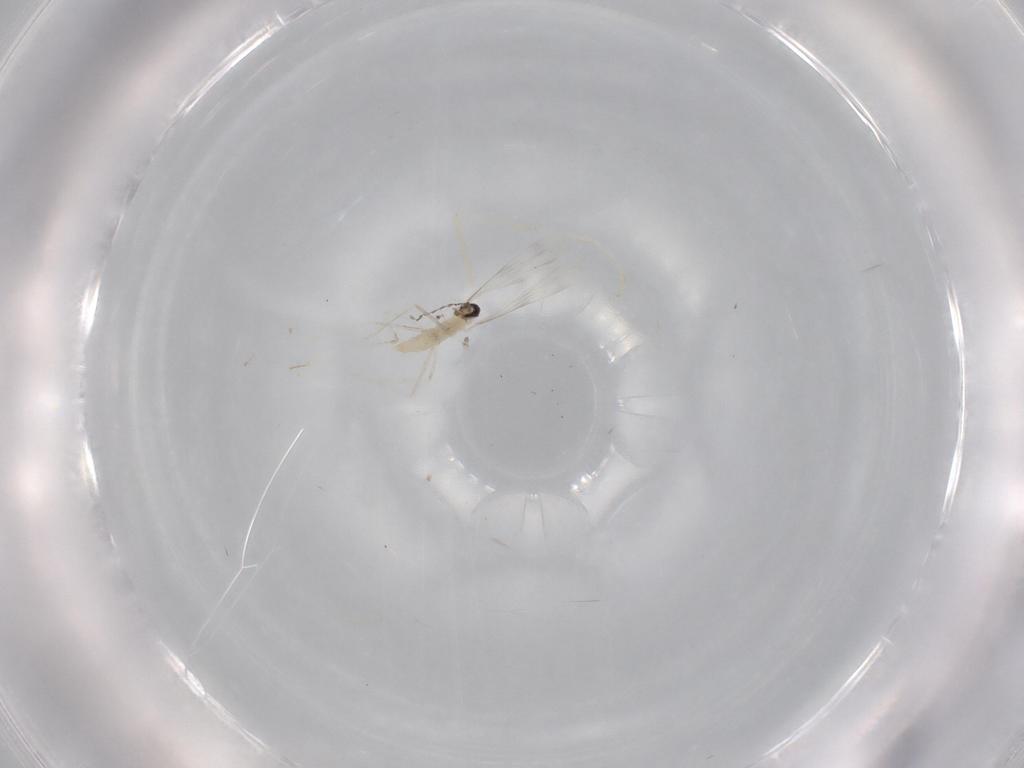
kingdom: Animalia
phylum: Arthropoda
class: Insecta
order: Diptera
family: Cecidomyiidae
